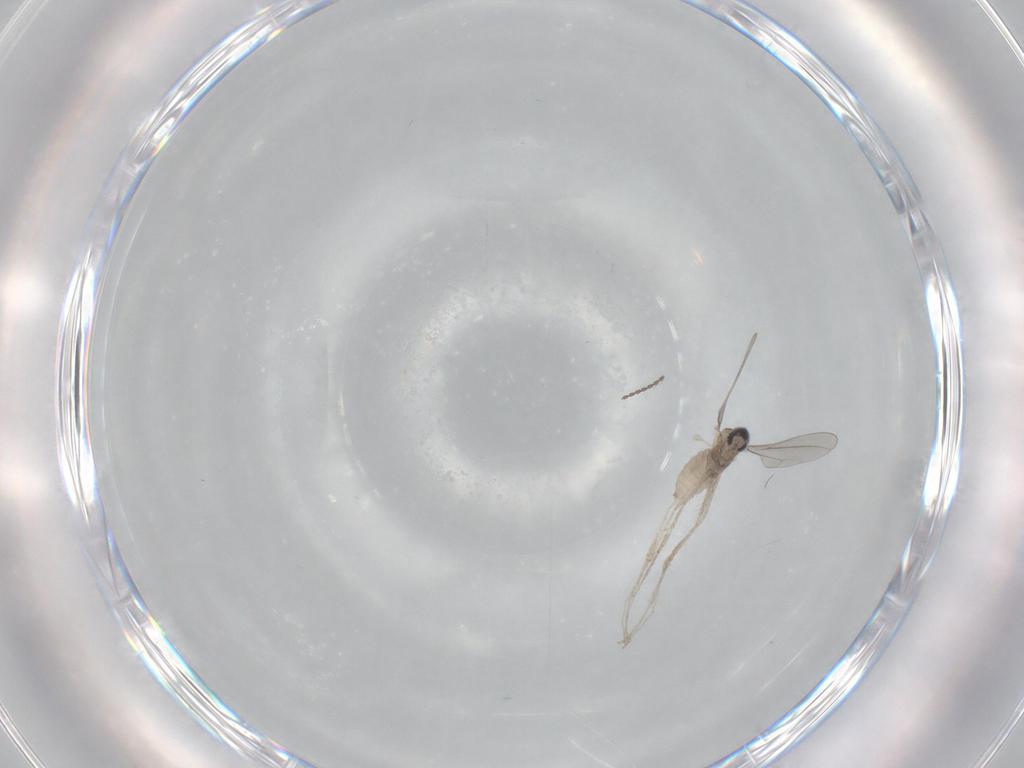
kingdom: Animalia
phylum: Arthropoda
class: Insecta
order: Diptera
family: Cecidomyiidae
